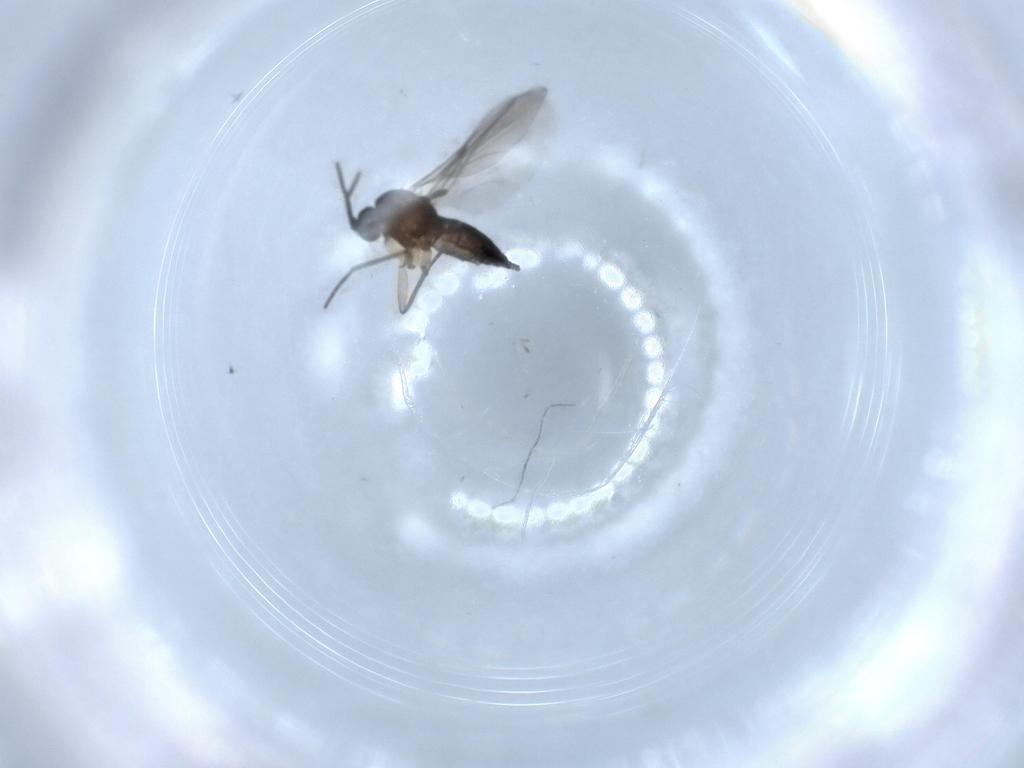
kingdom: Animalia
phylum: Arthropoda
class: Insecta
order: Diptera
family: Sciaridae
